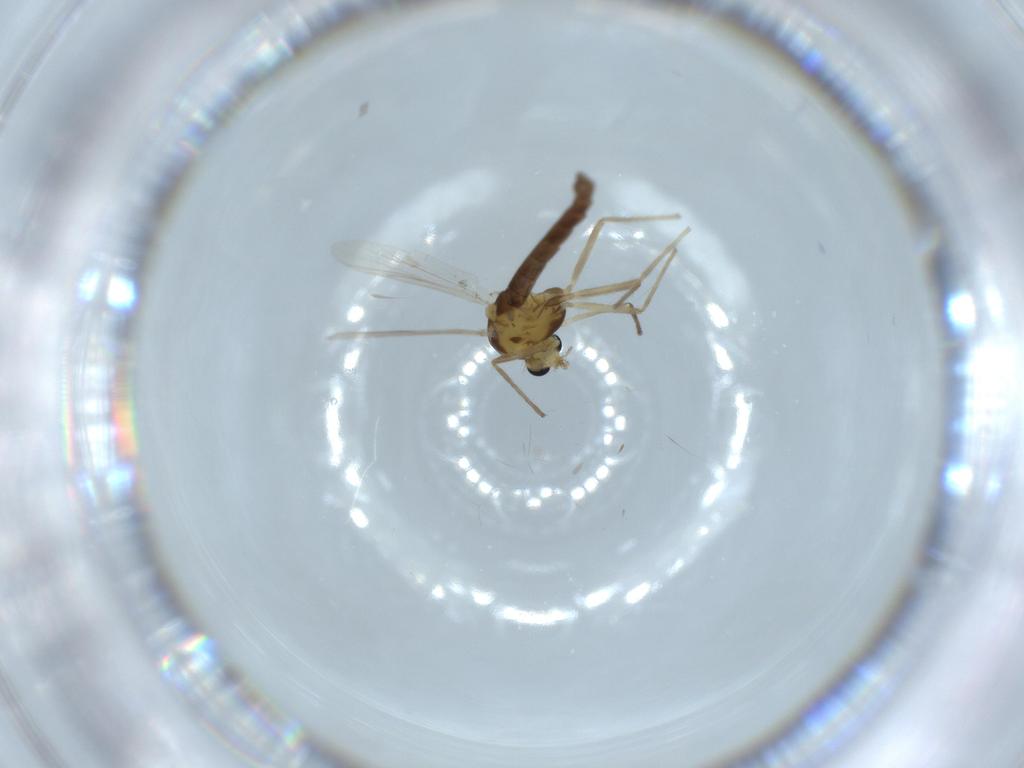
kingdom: Animalia
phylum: Arthropoda
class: Insecta
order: Diptera
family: Chironomidae
